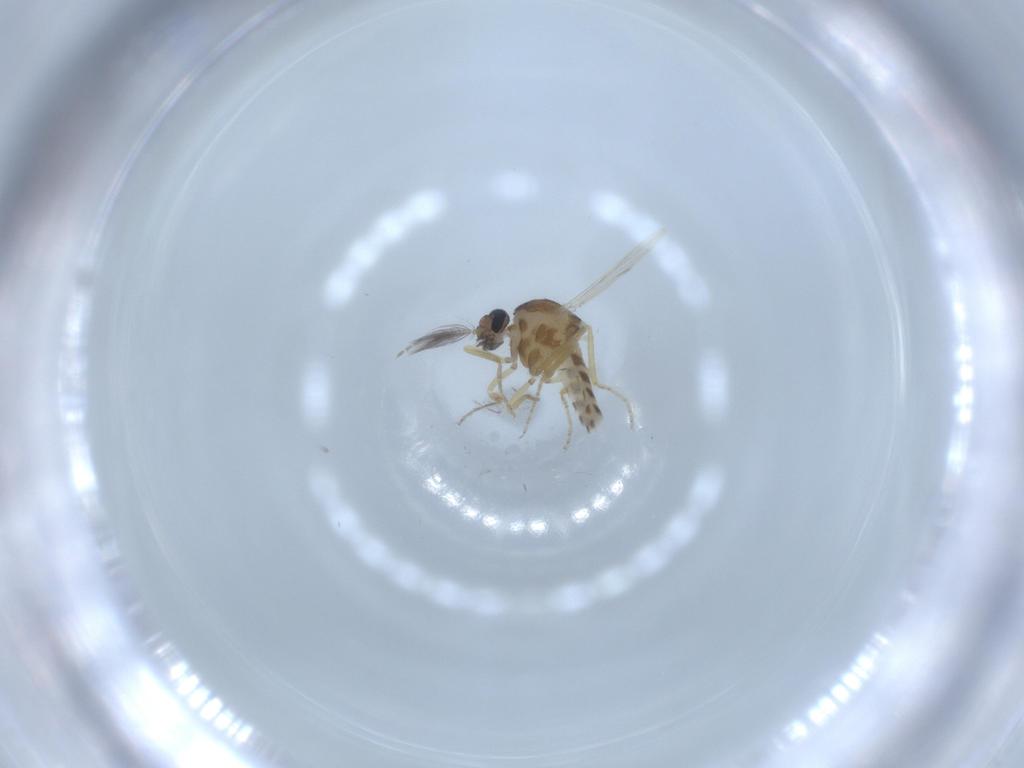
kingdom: Animalia
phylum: Arthropoda
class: Insecta
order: Diptera
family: Ceratopogonidae
